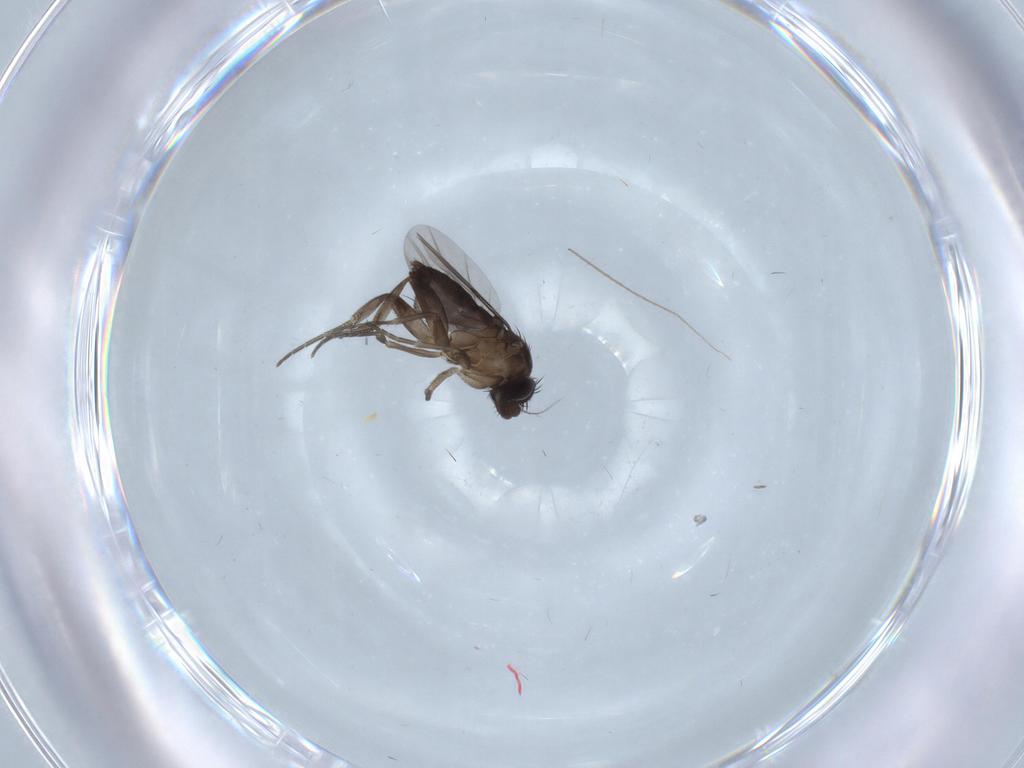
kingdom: Animalia
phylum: Arthropoda
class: Insecta
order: Diptera
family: Phoridae
